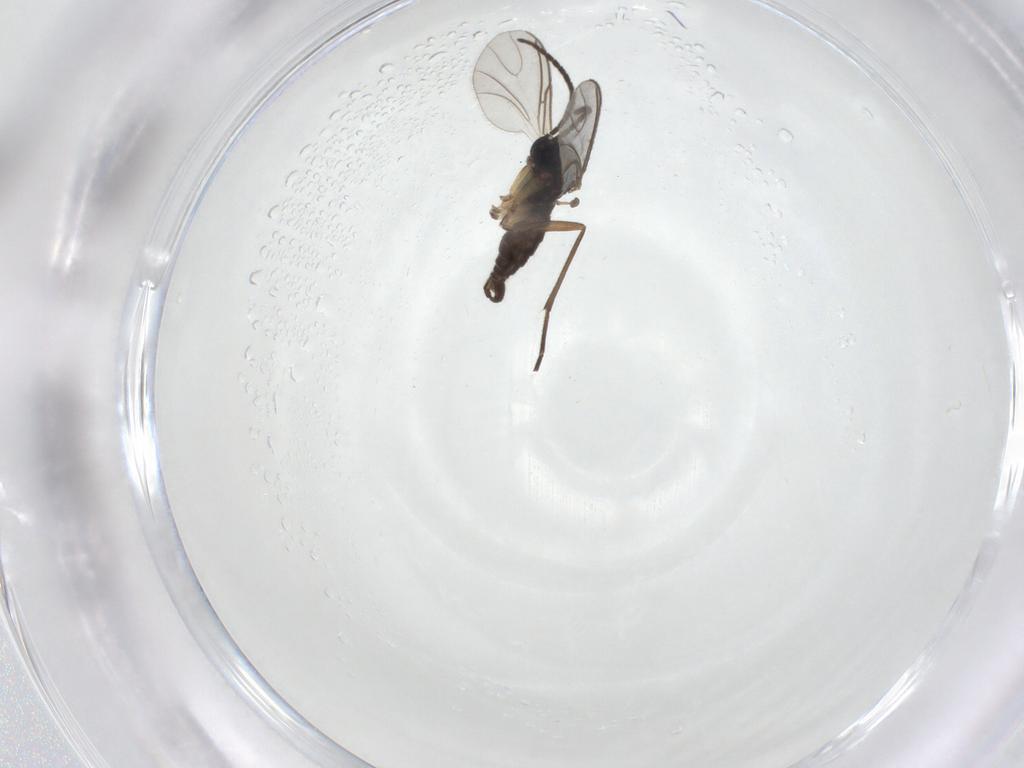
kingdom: Animalia
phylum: Arthropoda
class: Insecta
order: Diptera
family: Sciaridae
